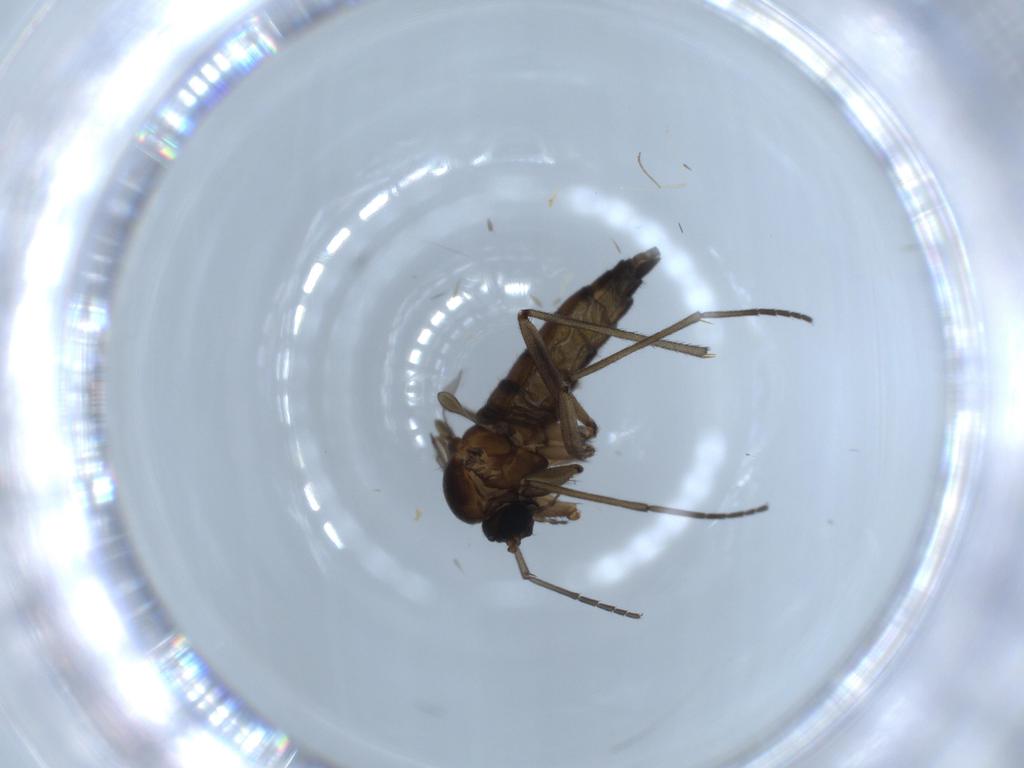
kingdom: Animalia
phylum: Arthropoda
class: Insecta
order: Diptera
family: Sciaridae
